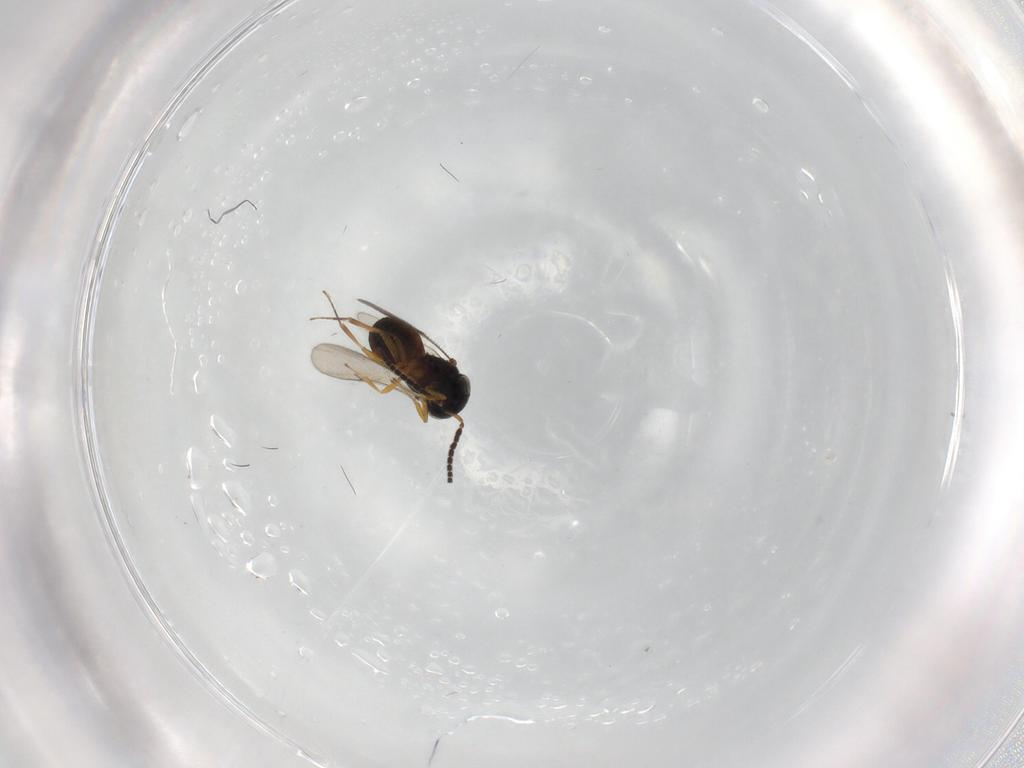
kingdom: Animalia
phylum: Arthropoda
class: Insecta
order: Hymenoptera
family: Scelionidae
